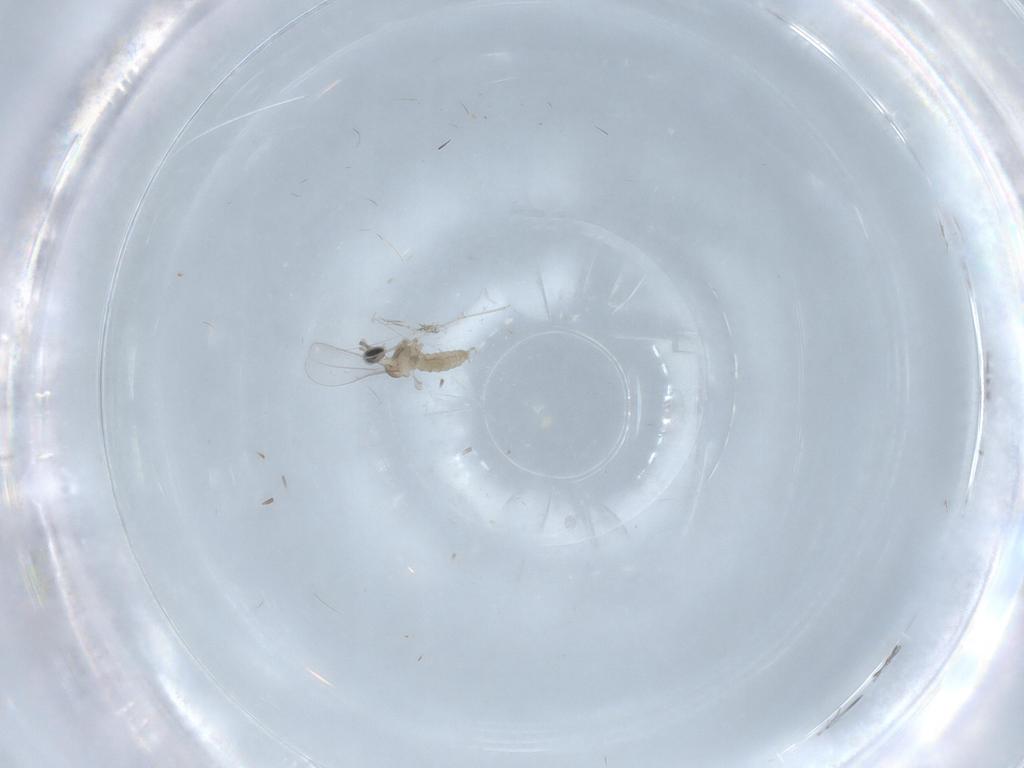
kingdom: Animalia
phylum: Arthropoda
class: Insecta
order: Diptera
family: Cecidomyiidae
